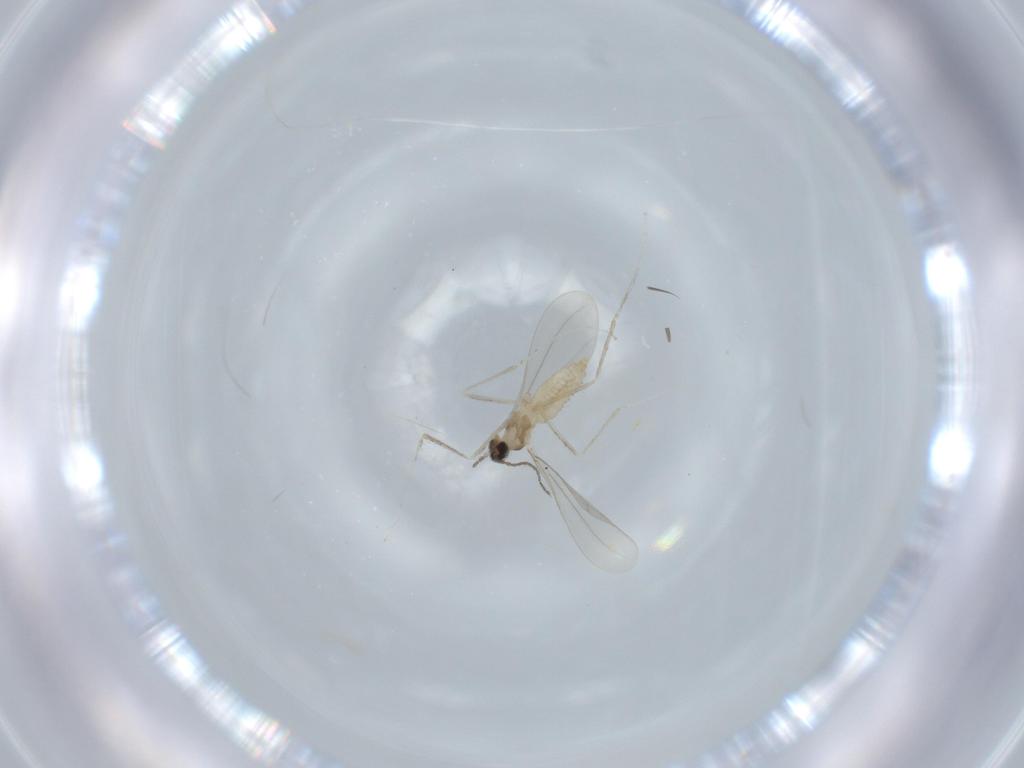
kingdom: Animalia
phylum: Arthropoda
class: Insecta
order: Diptera
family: Cecidomyiidae
